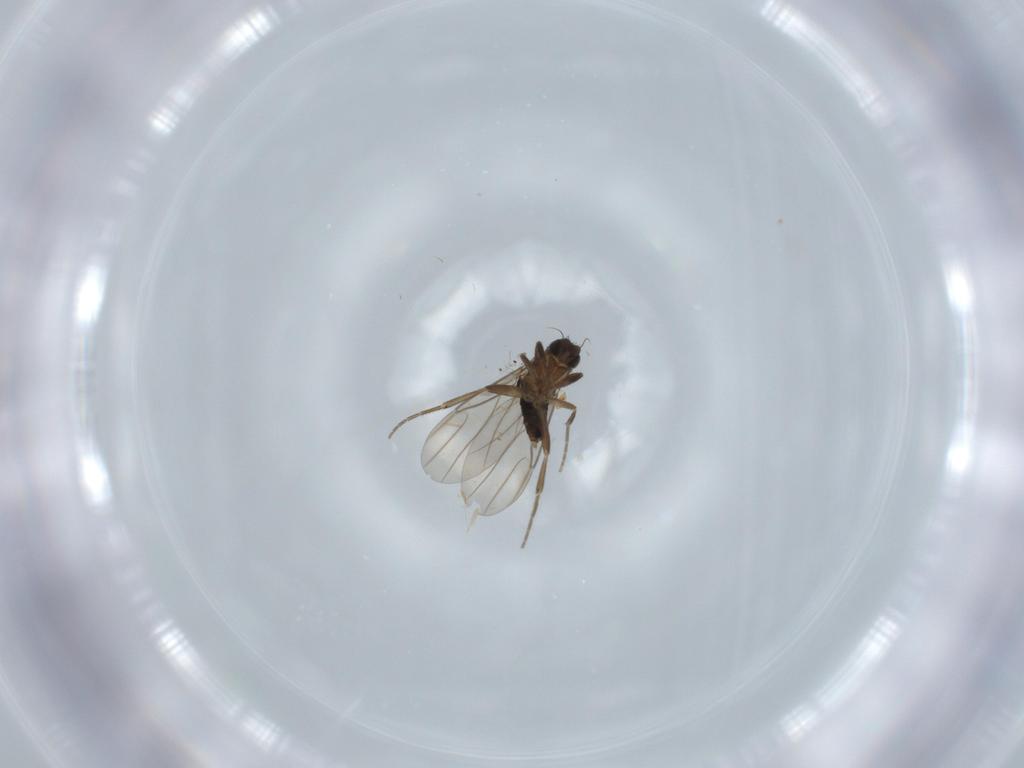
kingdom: Animalia
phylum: Arthropoda
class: Insecta
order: Diptera
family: Phoridae
